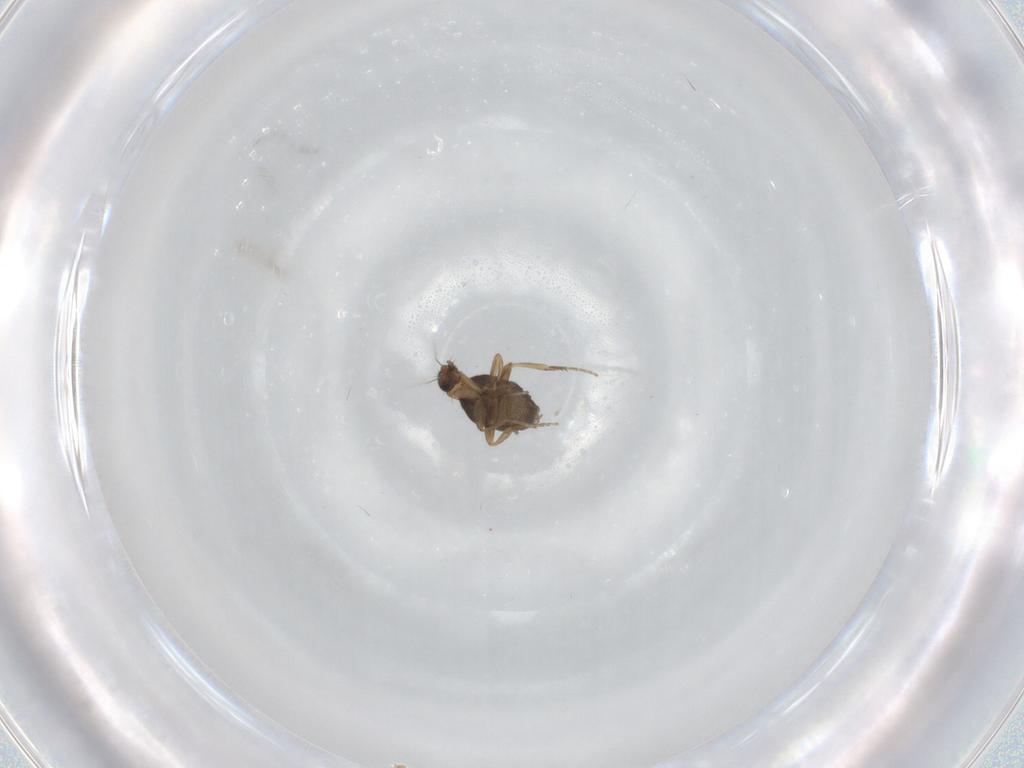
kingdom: Animalia
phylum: Arthropoda
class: Insecta
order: Diptera
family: Phoridae
